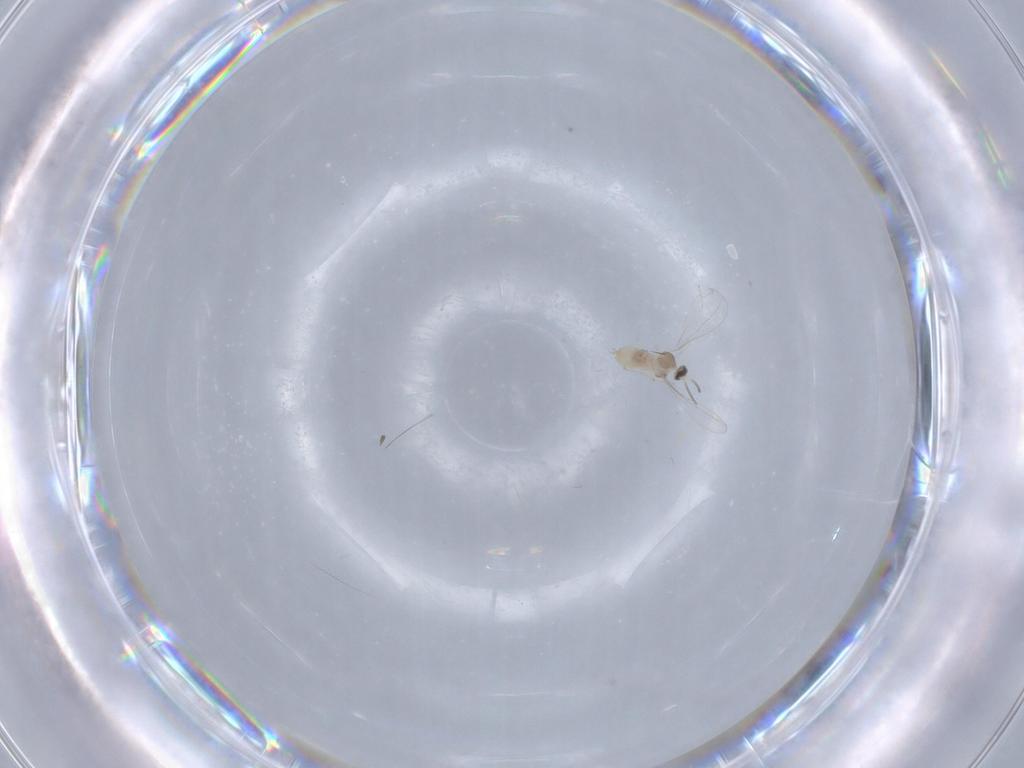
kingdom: Animalia
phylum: Arthropoda
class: Insecta
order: Diptera
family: Cecidomyiidae
